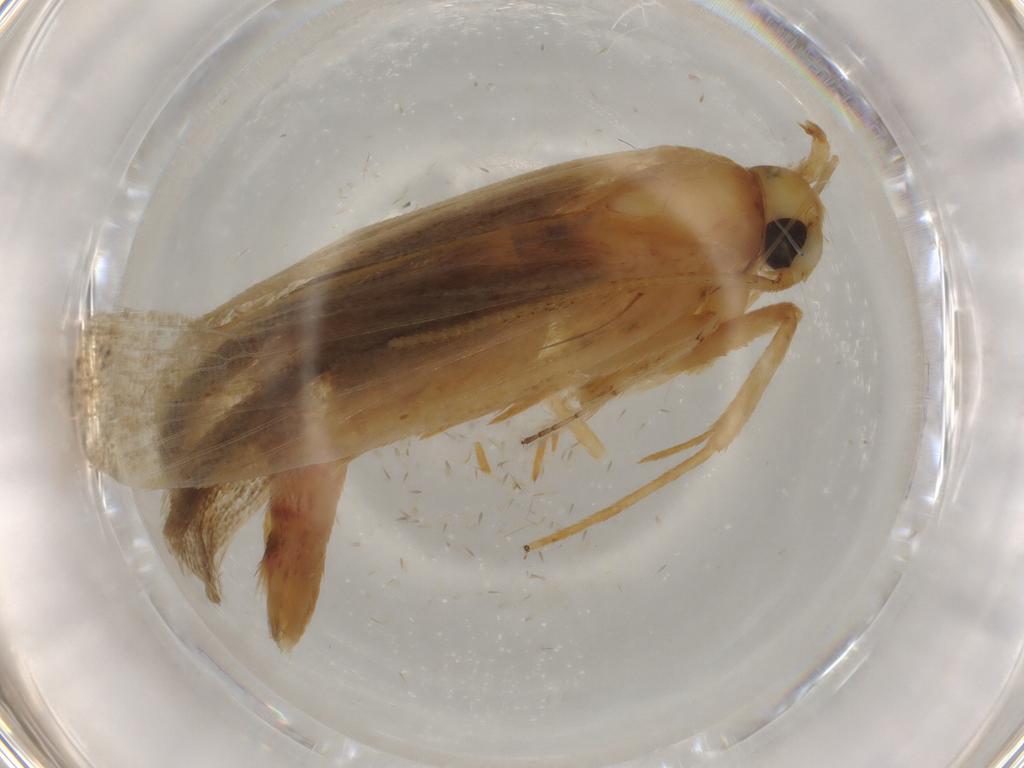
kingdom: Animalia
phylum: Arthropoda
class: Insecta
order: Lepidoptera
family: Autostichidae
